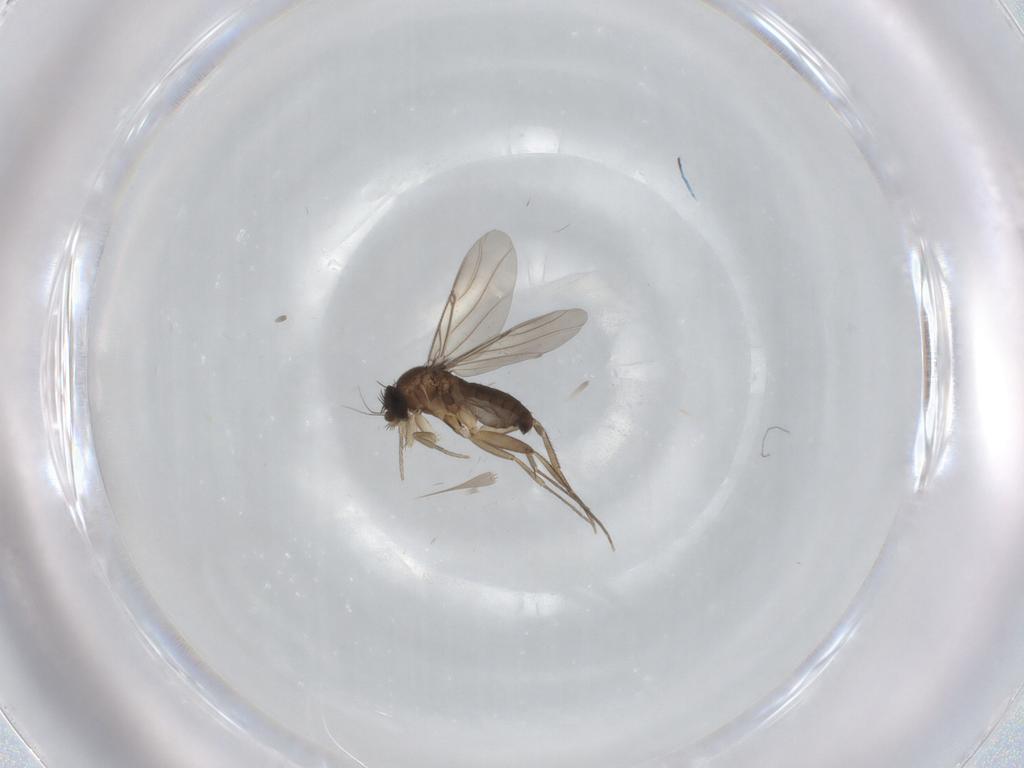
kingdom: Animalia
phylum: Arthropoda
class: Insecta
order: Diptera
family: Phoridae
